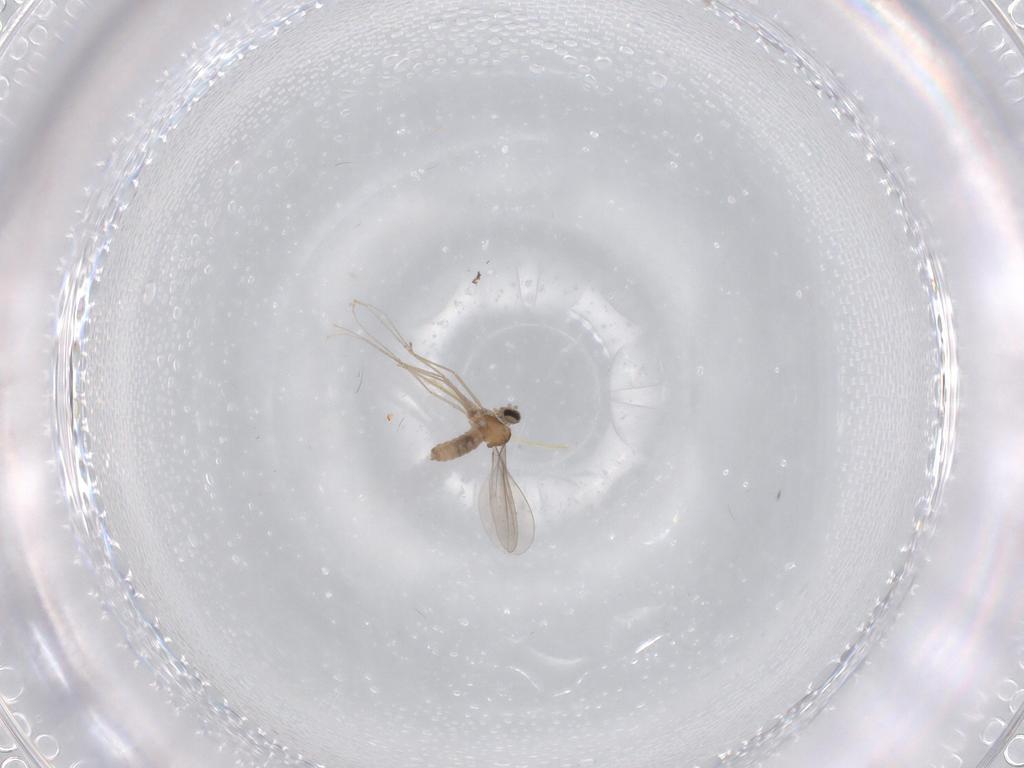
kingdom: Animalia
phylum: Arthropoda
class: Insecta
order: Diptera
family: Cecidomyiidae
